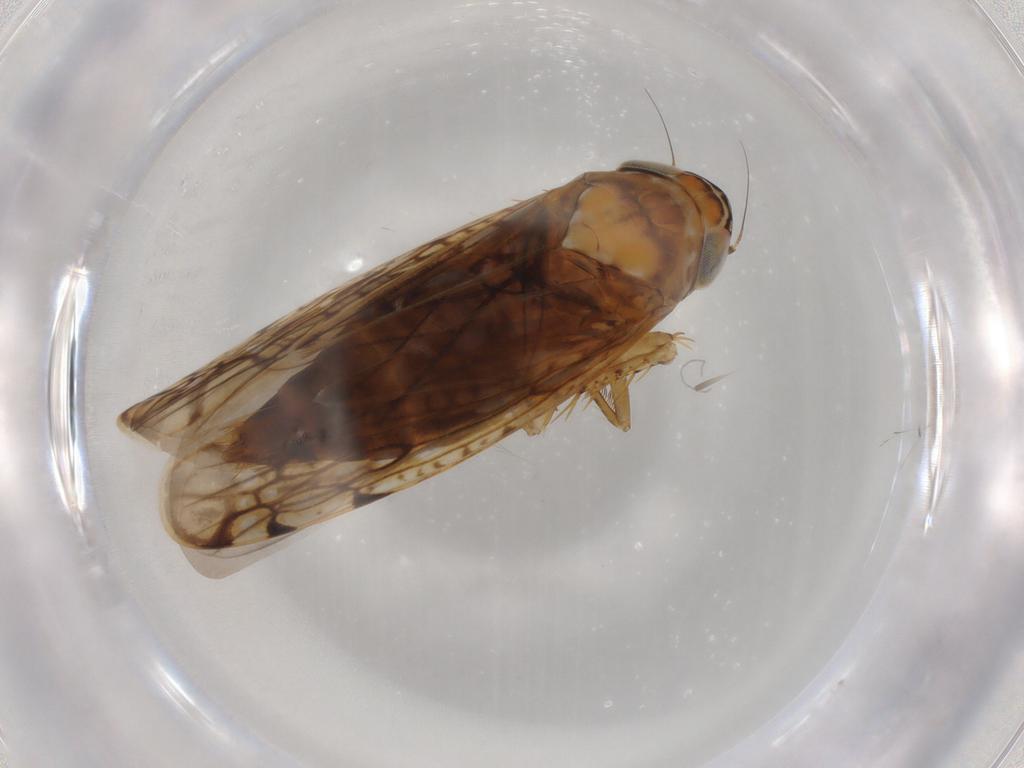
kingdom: Animalia
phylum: Arthropoda
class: Insecta
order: Hemiptera
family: Cicadellidae
